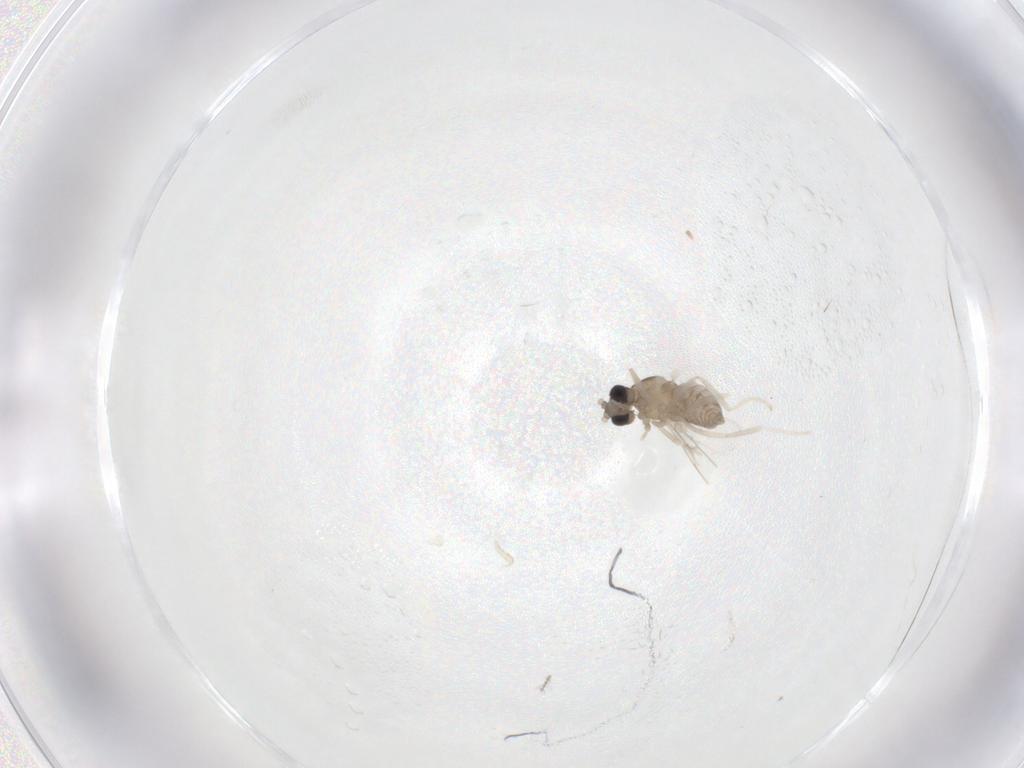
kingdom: Animalia
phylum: Arthropoda
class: Insecta
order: Diptera
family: Cecidomyiidae
